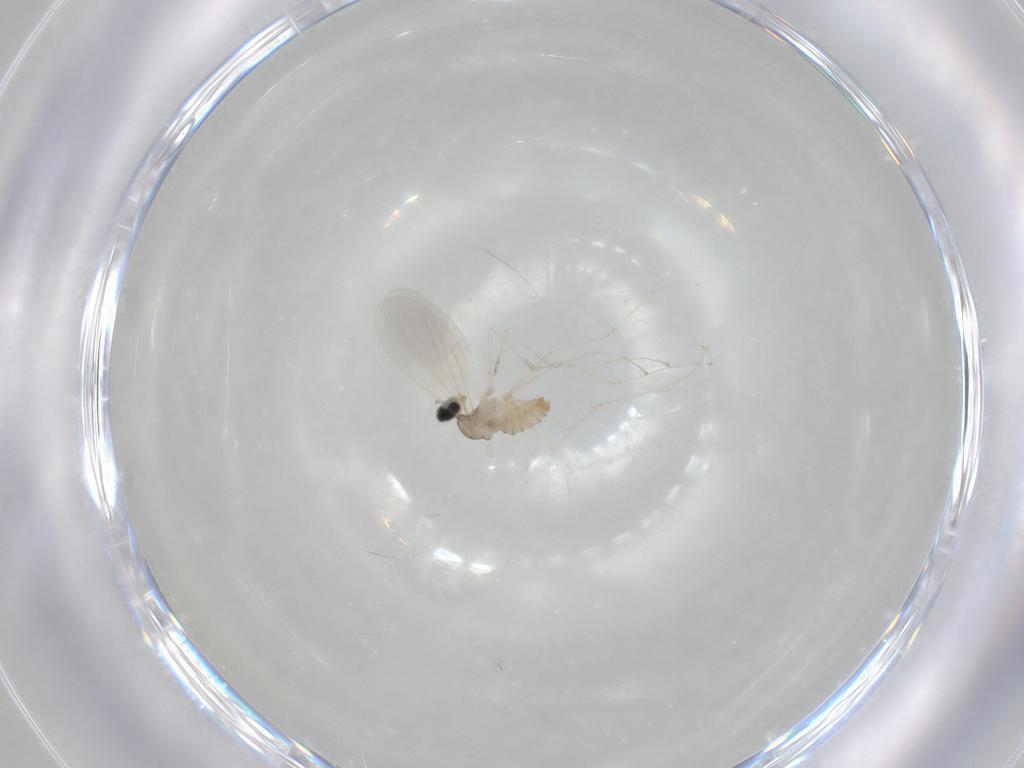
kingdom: Animalia
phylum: Arthropoda
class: Insecta
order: Diptera
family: Cecidomyiidae
